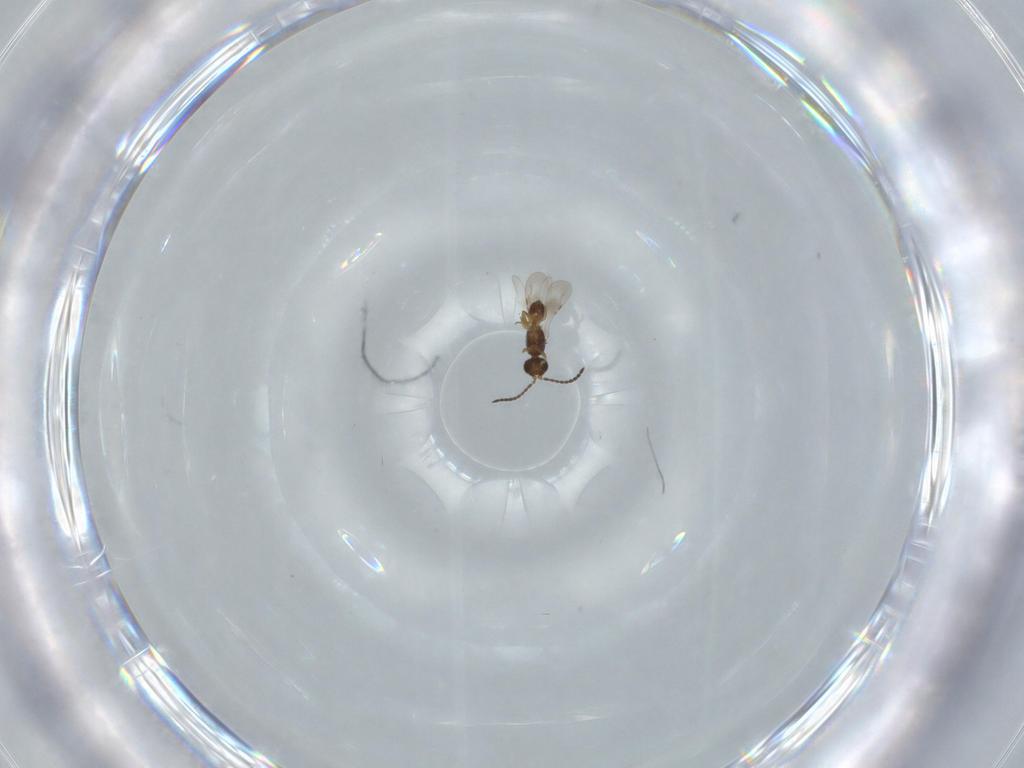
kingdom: Animalia
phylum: Arthropoda
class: Insecta
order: Hymenoptera
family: Ceraphronidae
